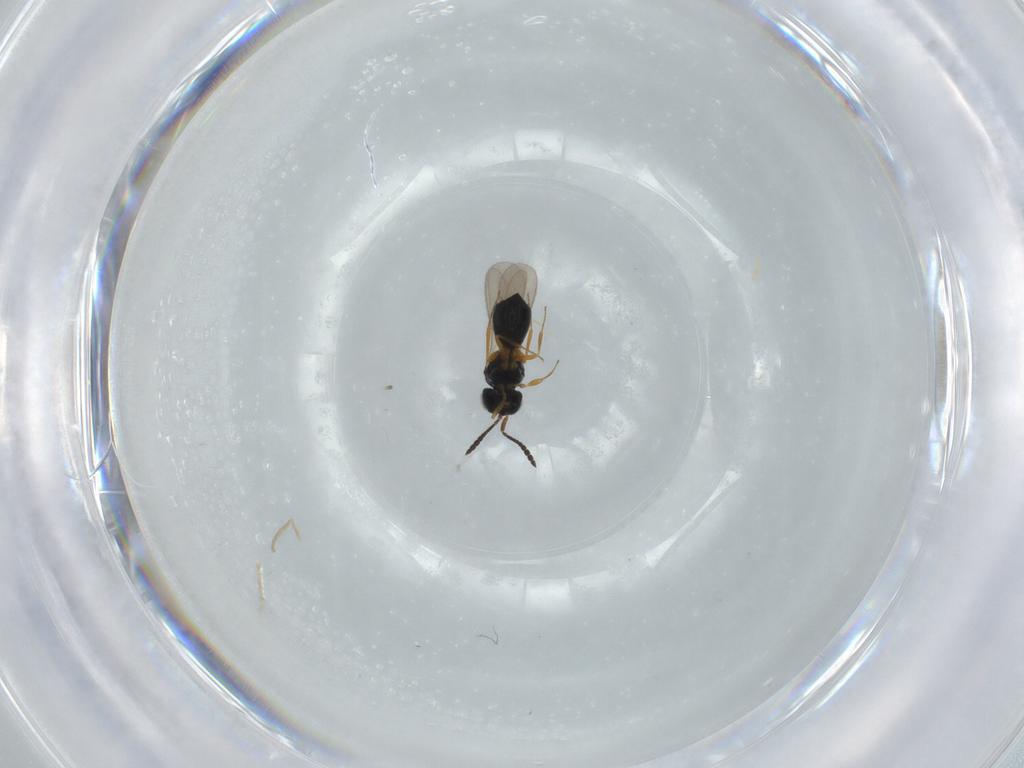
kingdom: Animalia
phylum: Arthropoda
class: Insecta
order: Hymenoptera
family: Scelionidae
